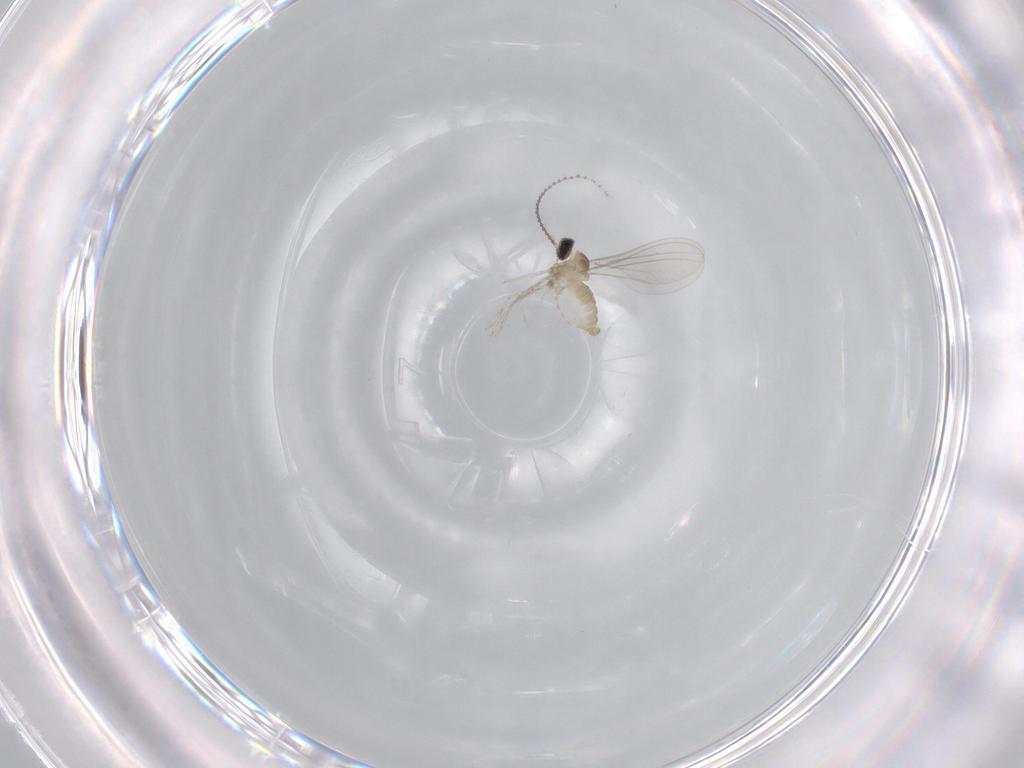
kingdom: Animalia
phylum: Arthropoda
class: Insecta
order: Diptera
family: Cecidomyiidae
